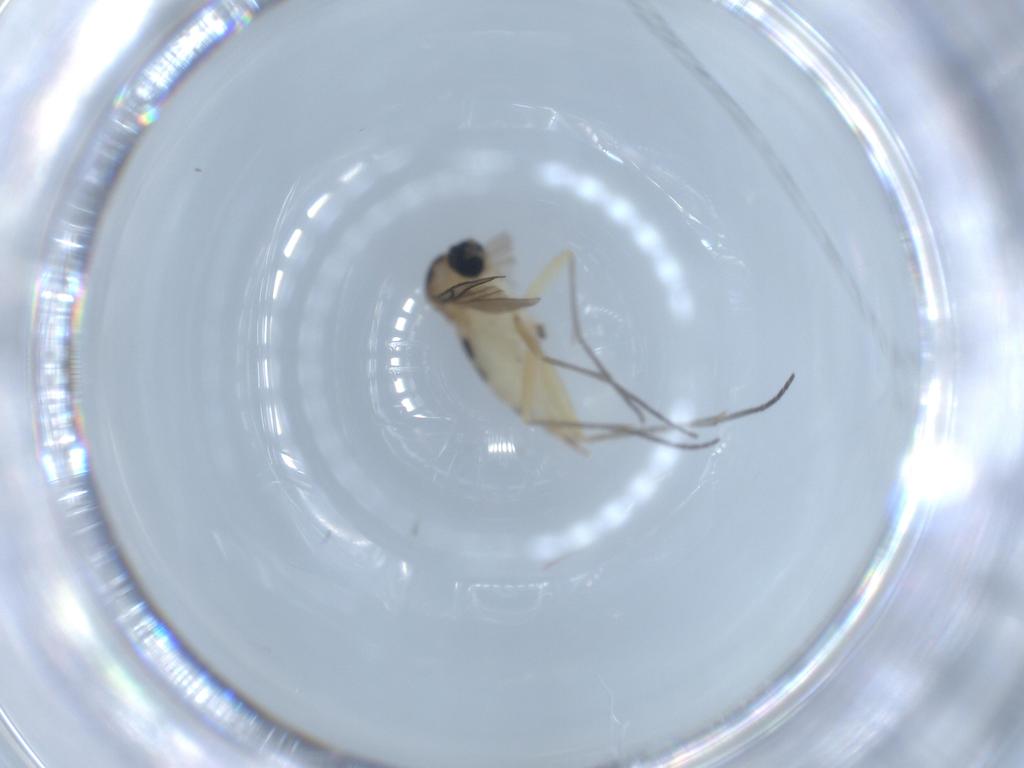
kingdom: Animalia
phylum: Arthropoda
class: Insecta
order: Diptera
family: Sciaridae
